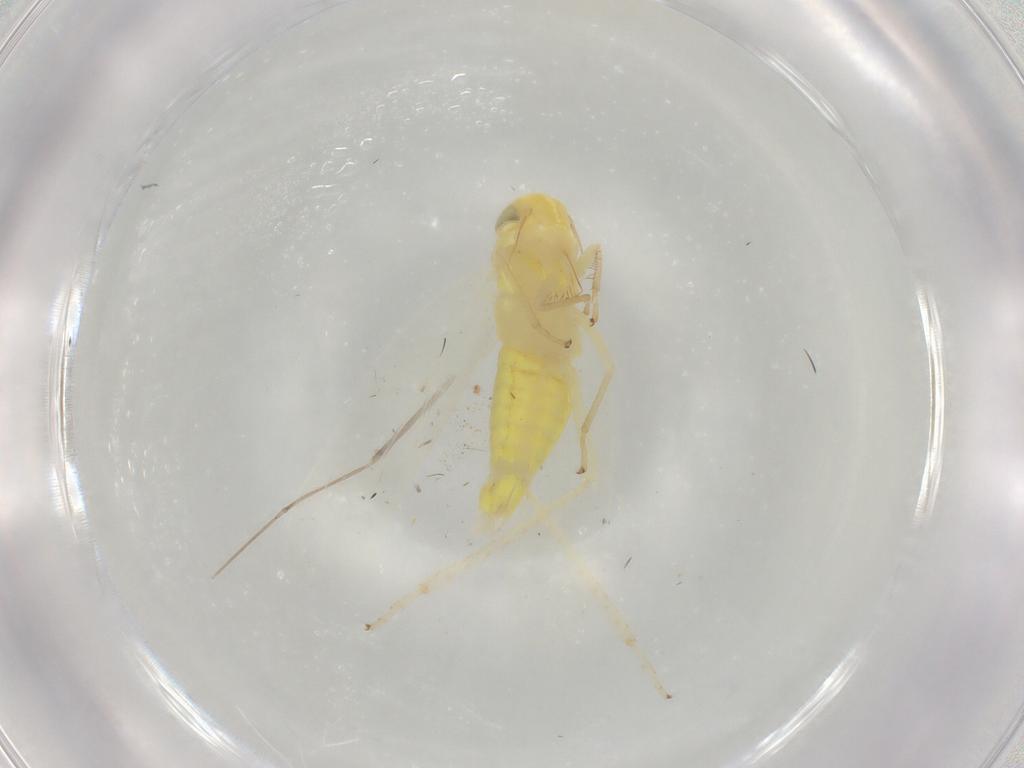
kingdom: Animalia
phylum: Arthropoda
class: Insecta
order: Hemiptera
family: Cicadellidae
